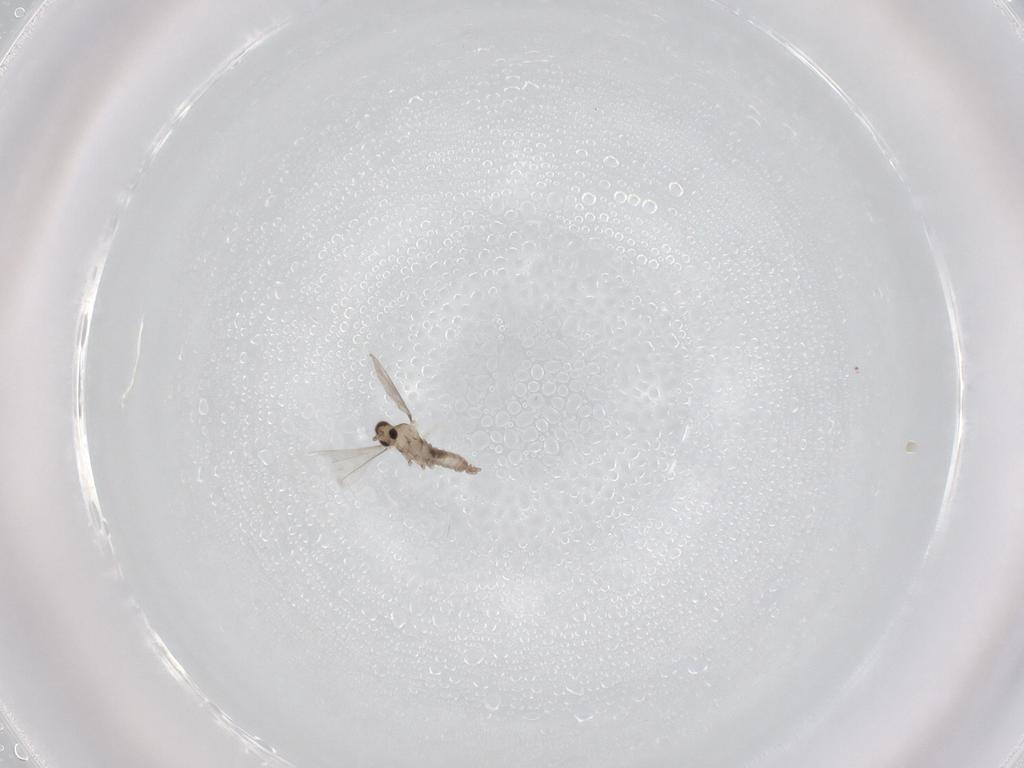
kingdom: Animalia
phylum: Arthropoda
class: Insecta
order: Diptera
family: Cecidomyiidae
